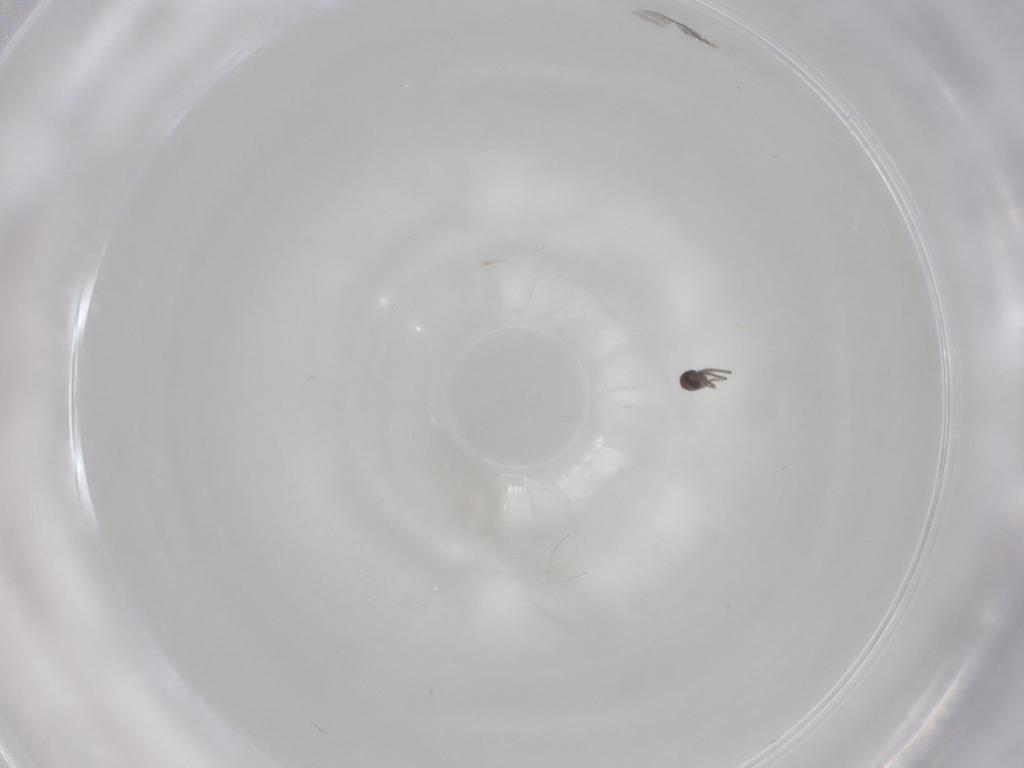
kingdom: Animalia
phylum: Arthropoda
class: Insecta
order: Diptera
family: Ceratopogonidae
